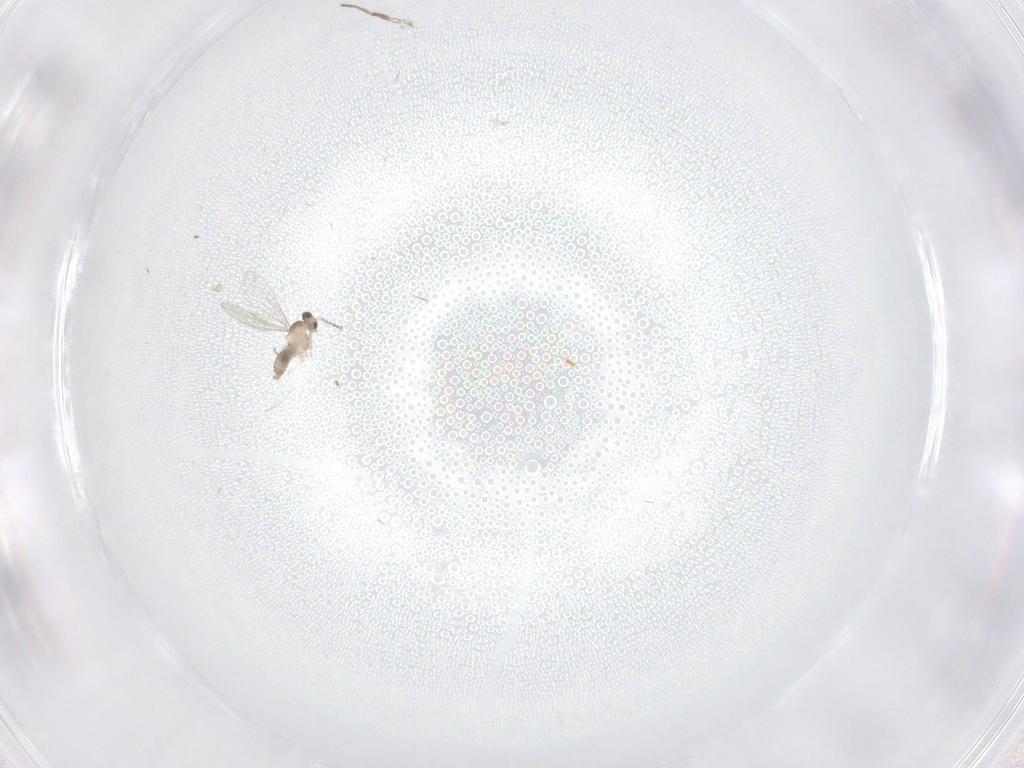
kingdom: Animalia
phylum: Arthropoda
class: Insecta
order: Diptera
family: Cecidomyiidae
